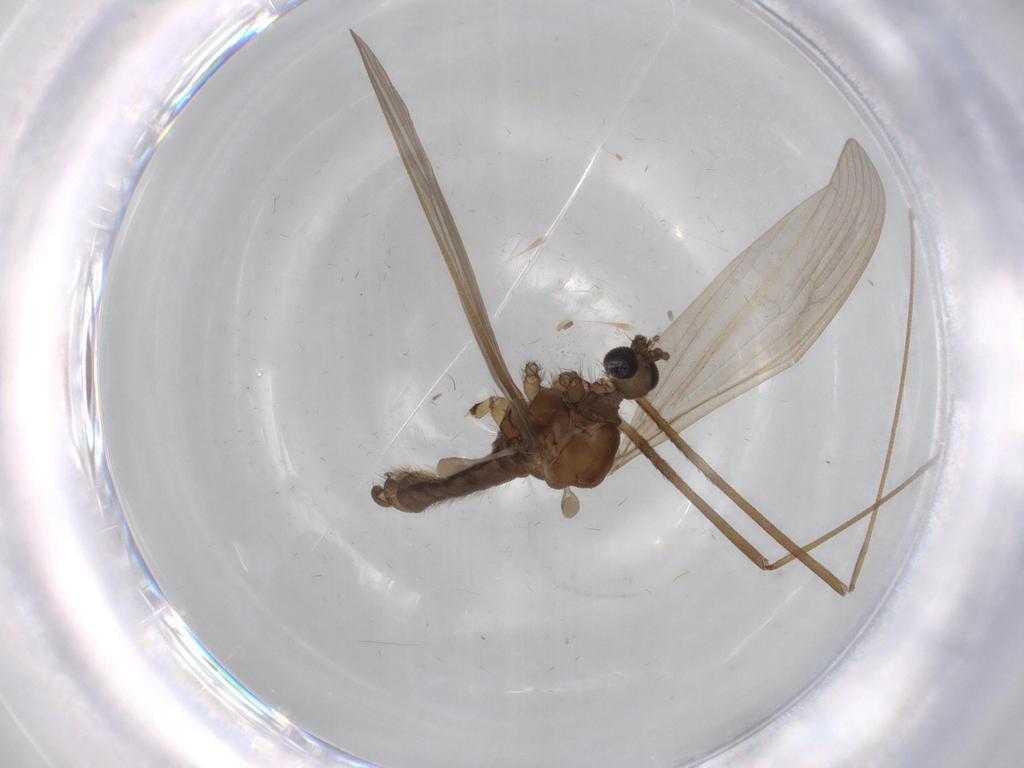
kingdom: Animalia
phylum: Arthropoda
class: Insecta
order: Diptera
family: Limoniidae
